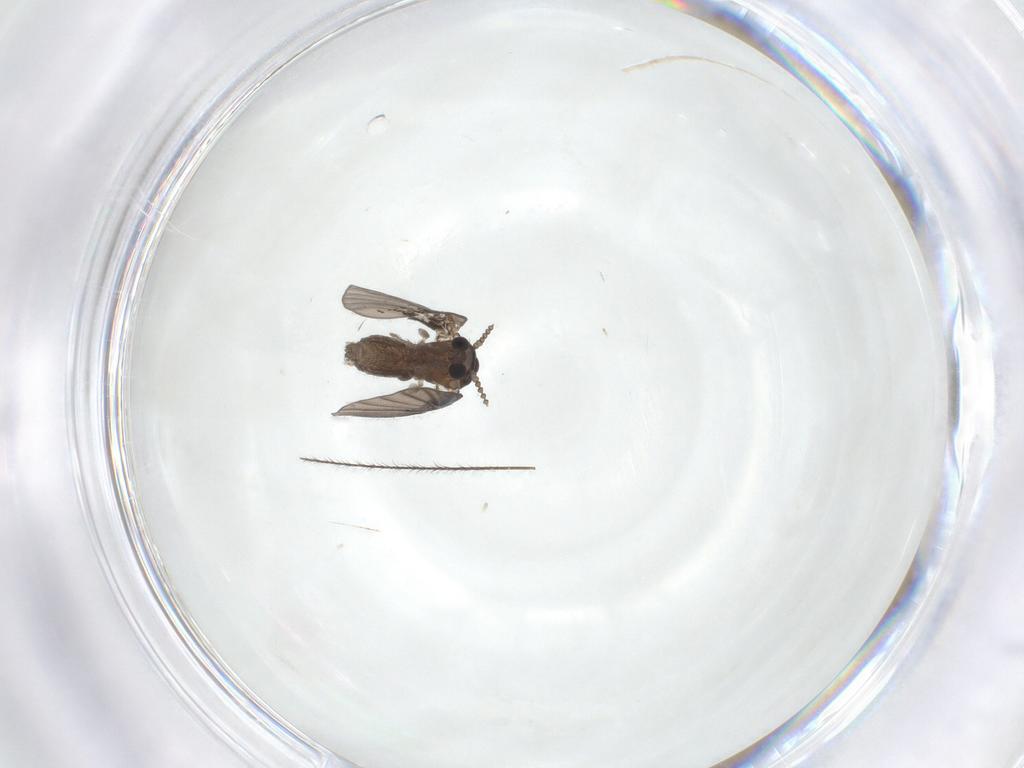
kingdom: Animalia
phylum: Arthropoda
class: Insecta
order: Diptera
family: Psychodidae
